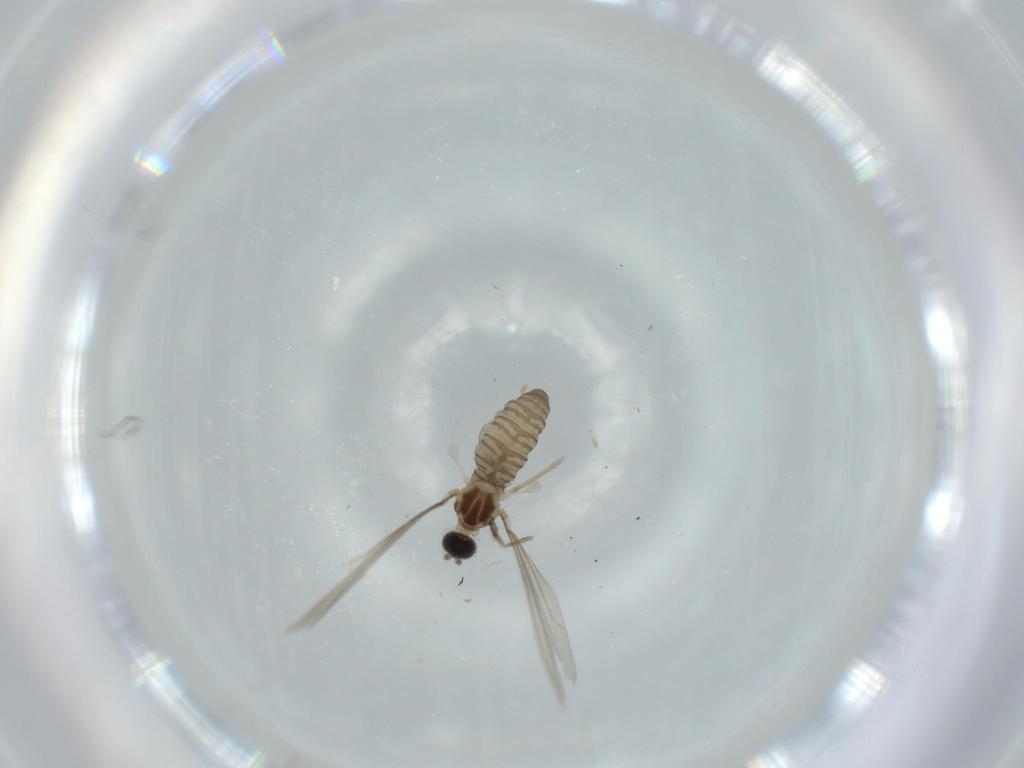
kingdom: Animalia
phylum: Arthropoda
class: Insecta
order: Diptera
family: Cecidomyiidae
